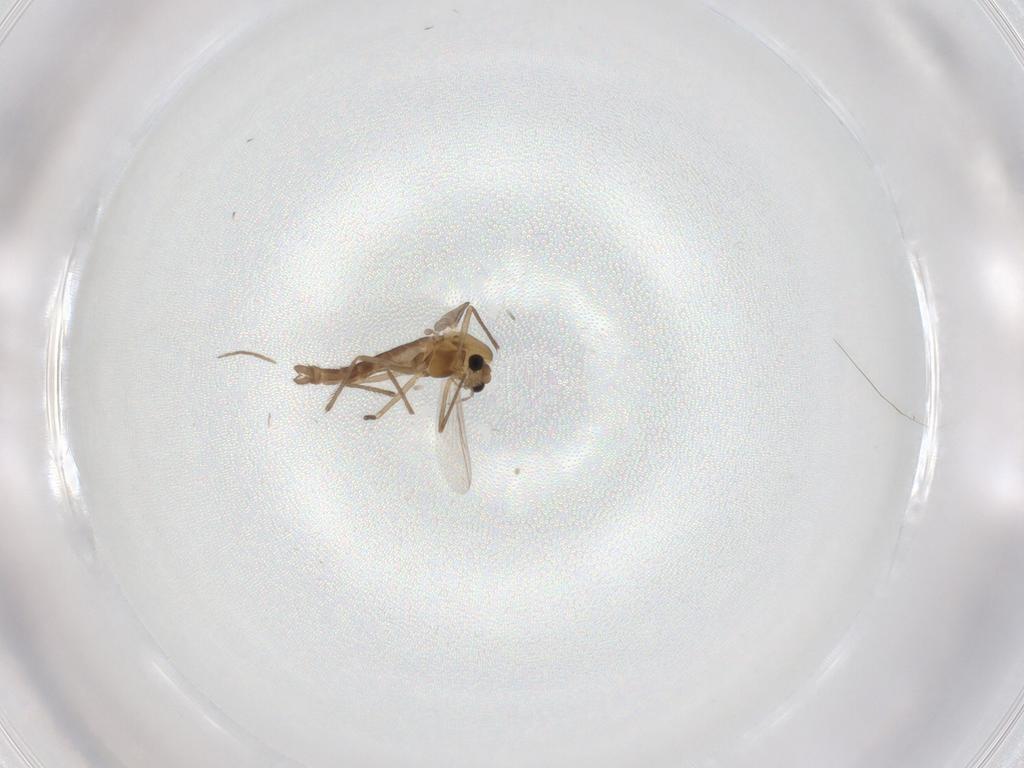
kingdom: Animalia
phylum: Arthropoda
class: Insecta
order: Diptera
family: Chironomidae
